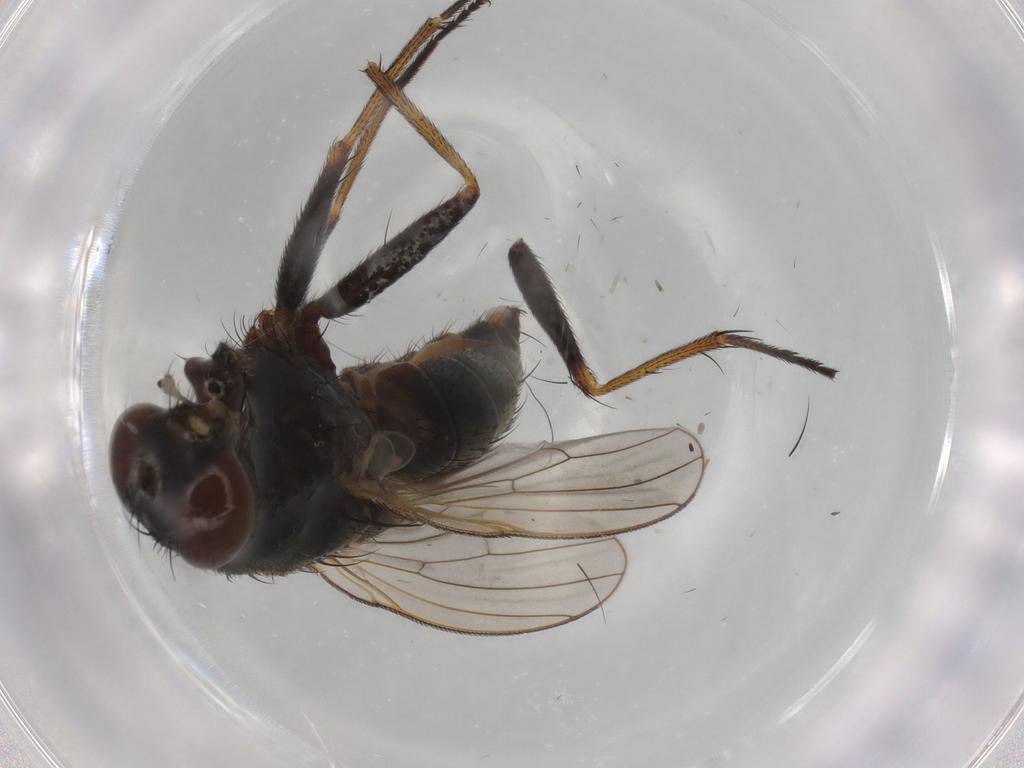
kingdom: Animalia
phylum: Arthropoda
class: Insecta
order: Diptera
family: Muscidae
